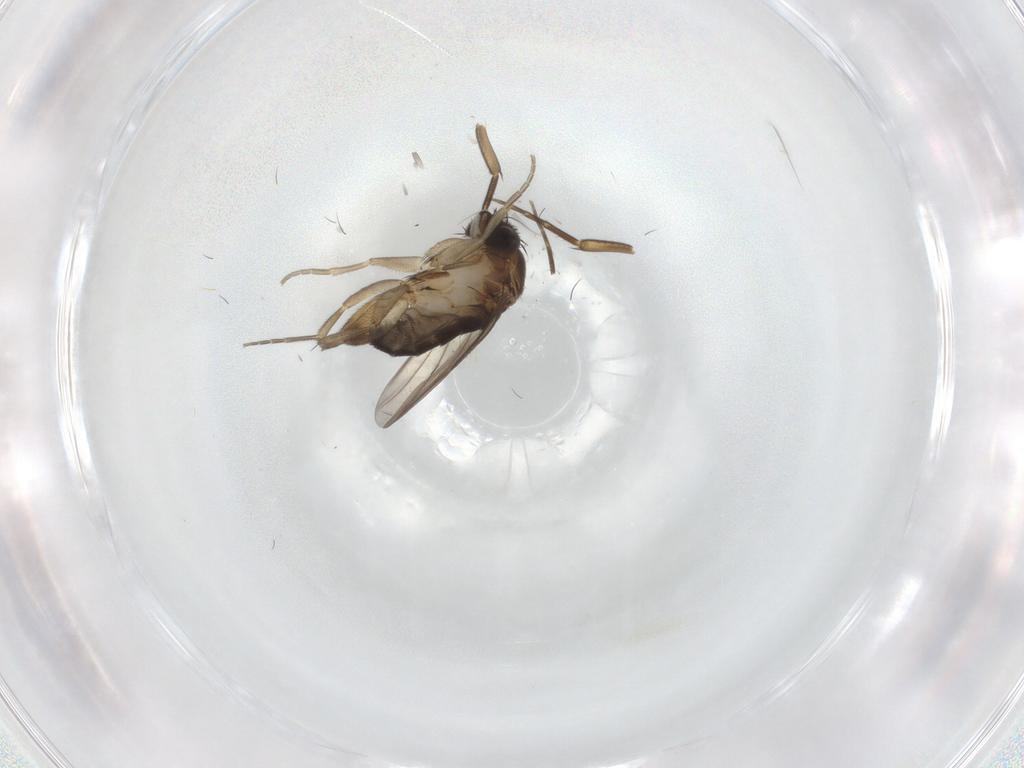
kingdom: Animalia
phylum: Arthropoda
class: Insecta
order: Diptera
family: Phoridae
